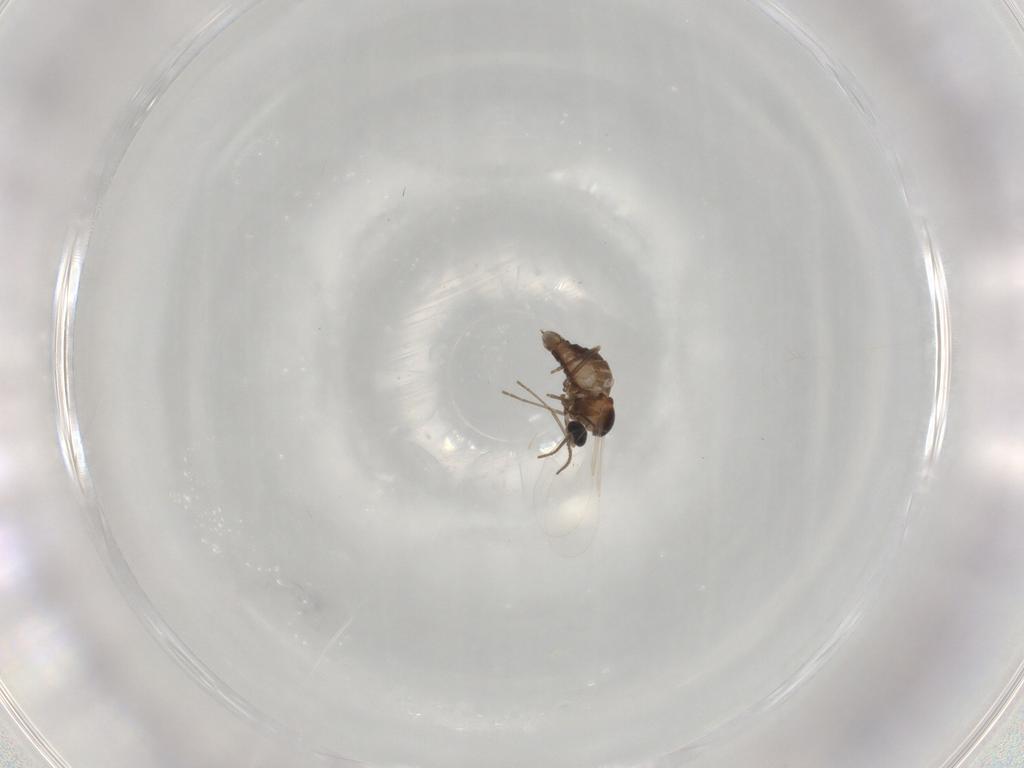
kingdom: Animalia
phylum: Arthropoda
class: Insecta
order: Diptera
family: Cecidomyiidae
